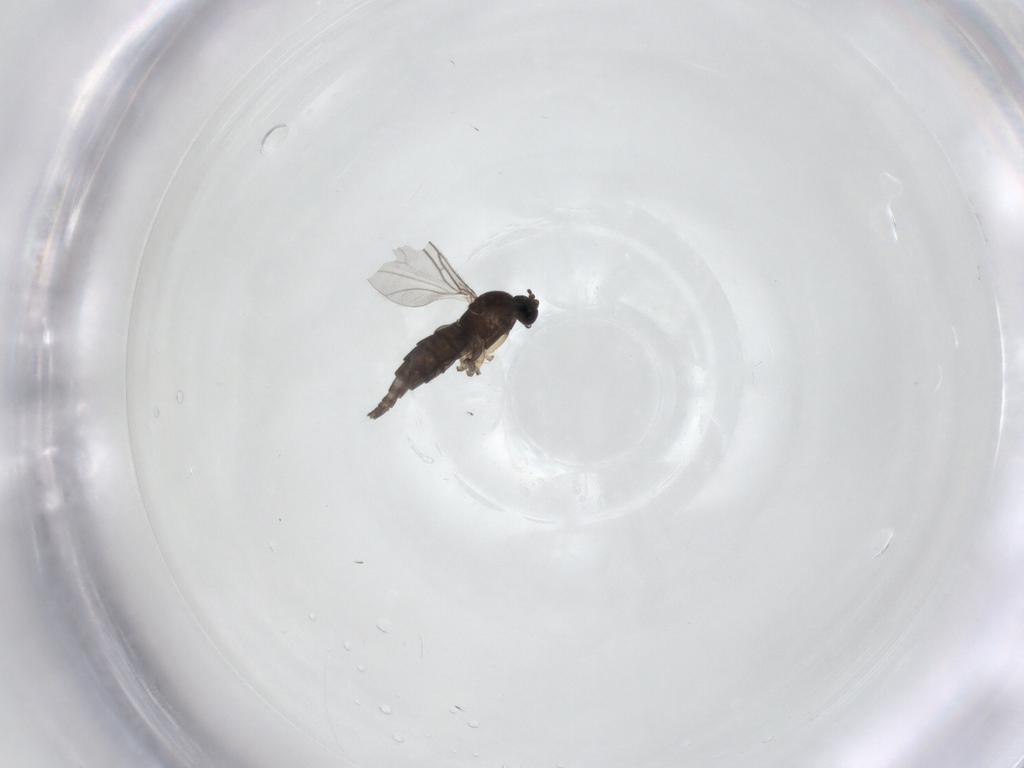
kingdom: Animalia
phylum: Arthropoda
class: Insecta
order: Diptera
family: Sciaridae
